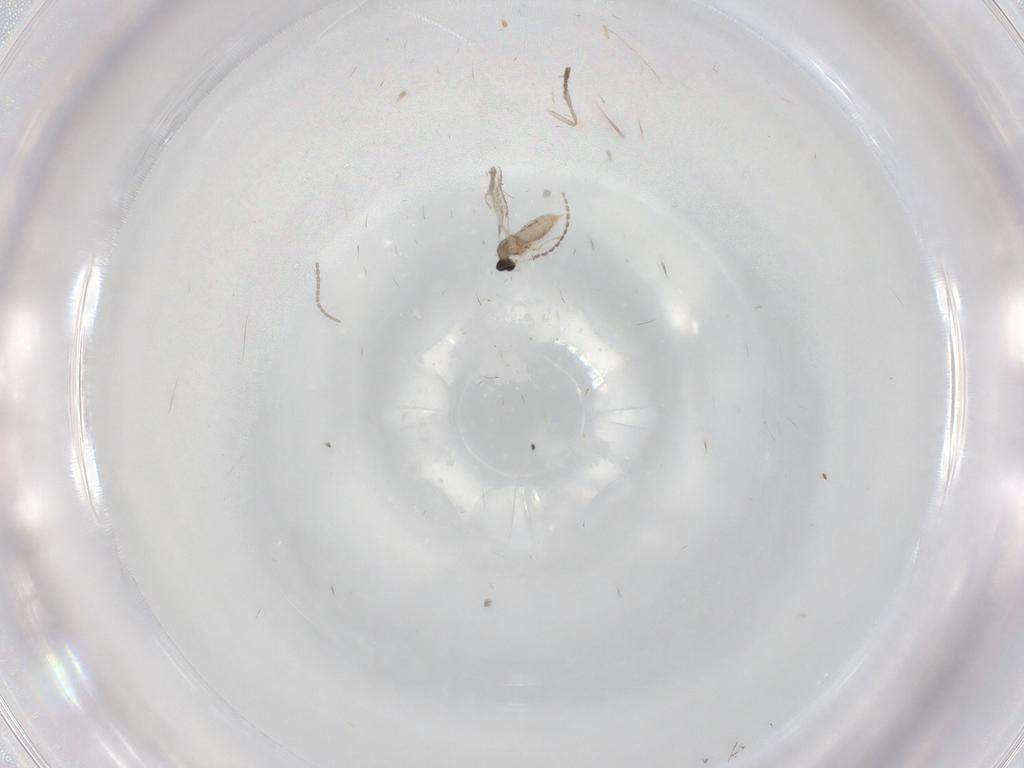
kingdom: Animalia
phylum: Arthropoda
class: Insecta
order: Diptera
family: Cecidomyiidae
